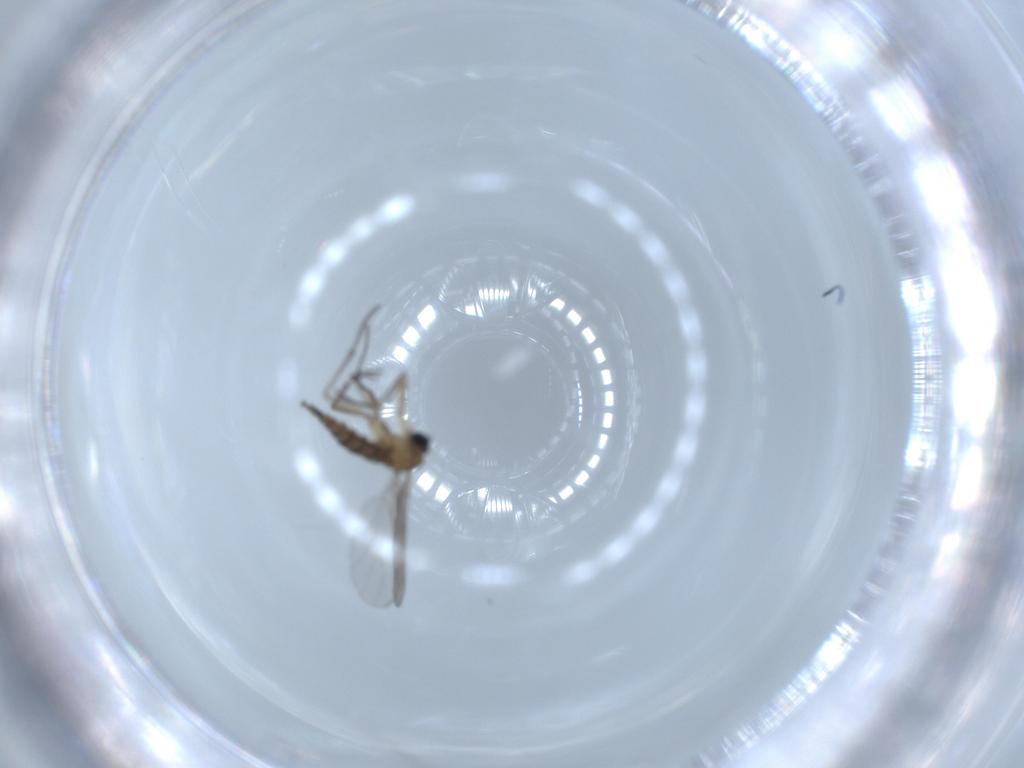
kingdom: Animalia
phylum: Arthropoda
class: Insecta
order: Diptera
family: Sciaridae
